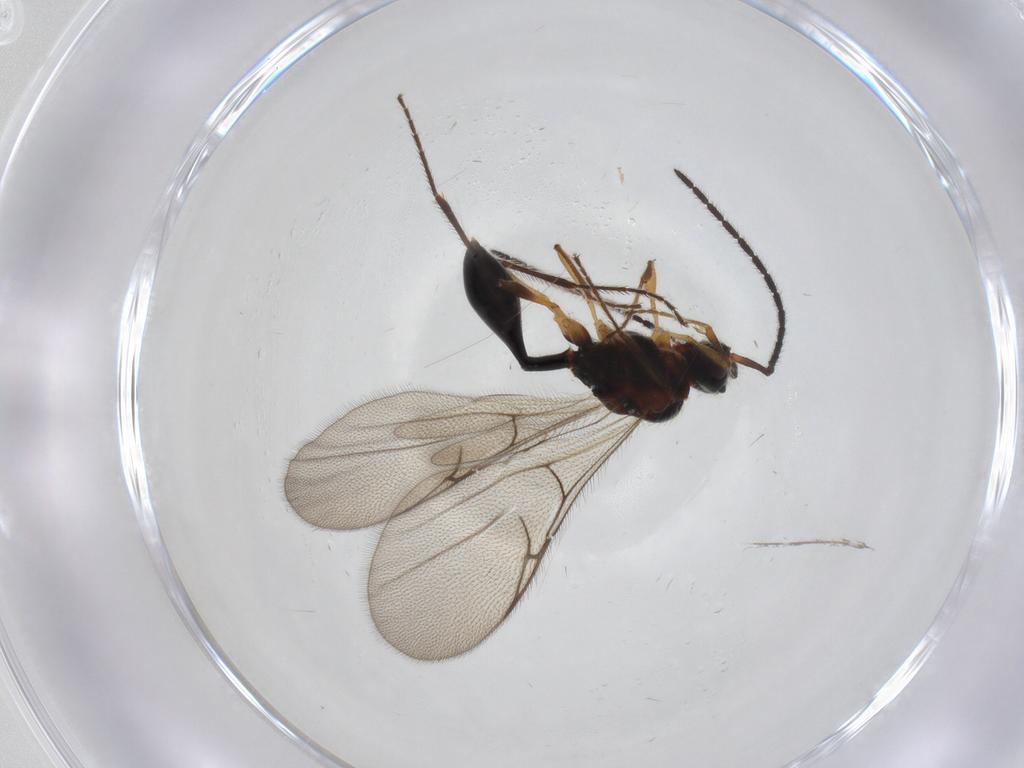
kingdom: Animalia
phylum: Arthropoda
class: Insecta
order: Hymenoptera
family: Diapriidae
